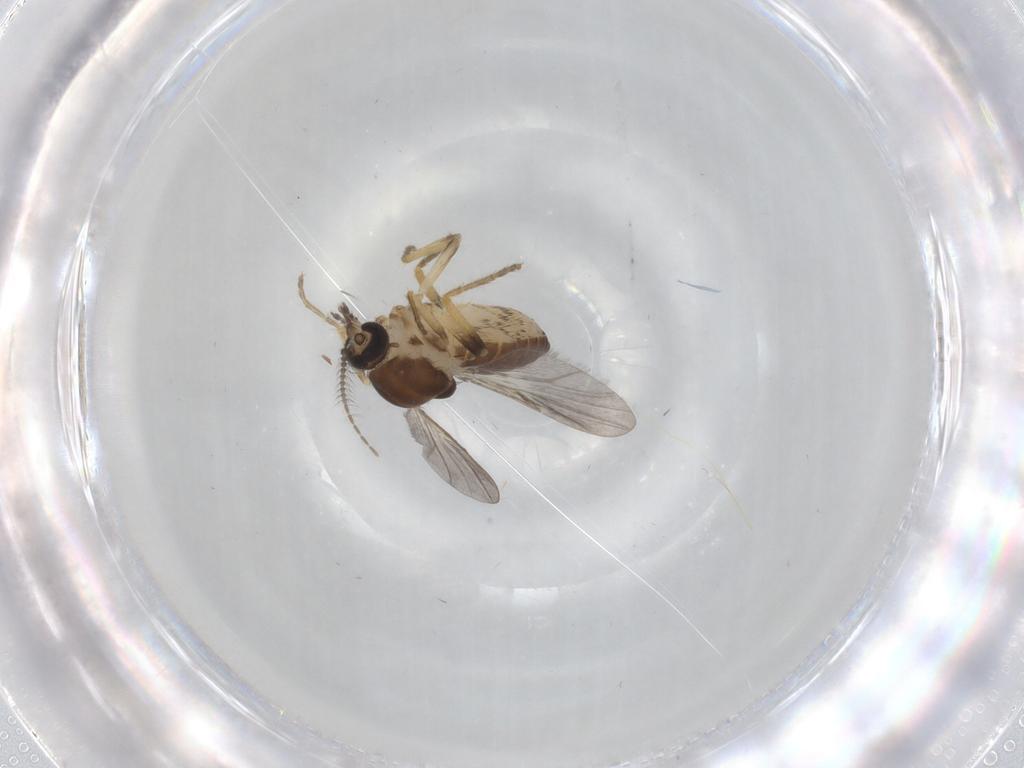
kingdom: Animalia
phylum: Arthropoda
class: Insecta
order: Diptera
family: Ceratopogonidae
